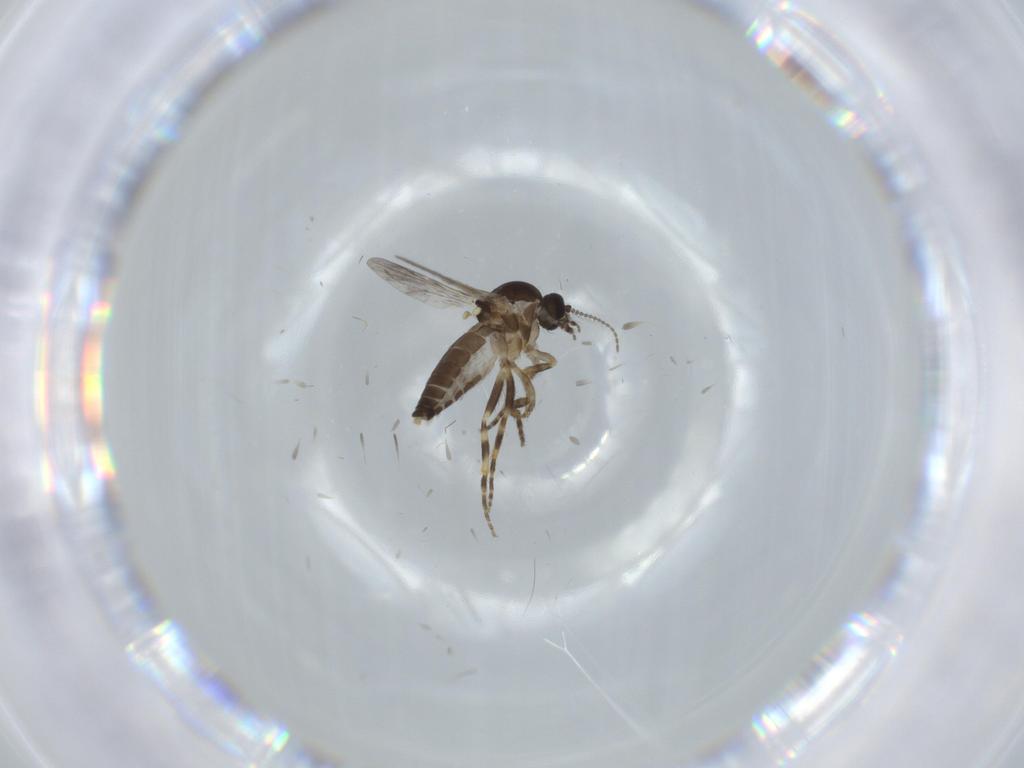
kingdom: Animalia
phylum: Arthropoda
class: Insecta
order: Diptera
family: Ceratopogonidae
